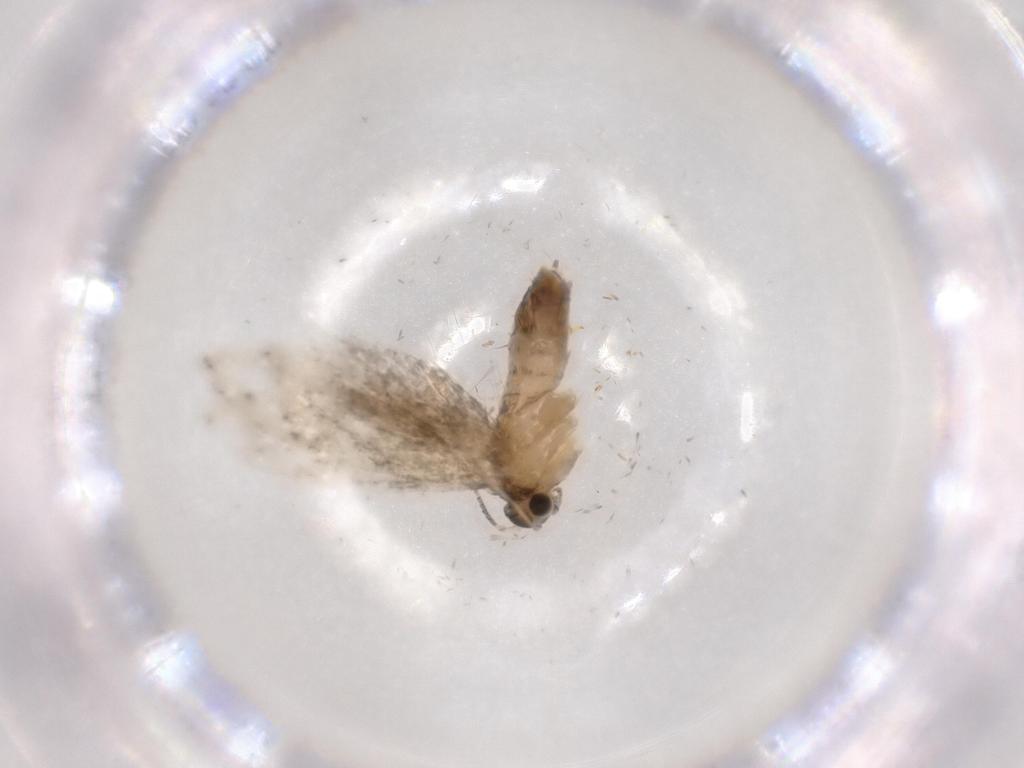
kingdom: Animalia
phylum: Arthropoda
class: Insecta
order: Lepidoptera
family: Tineidae
